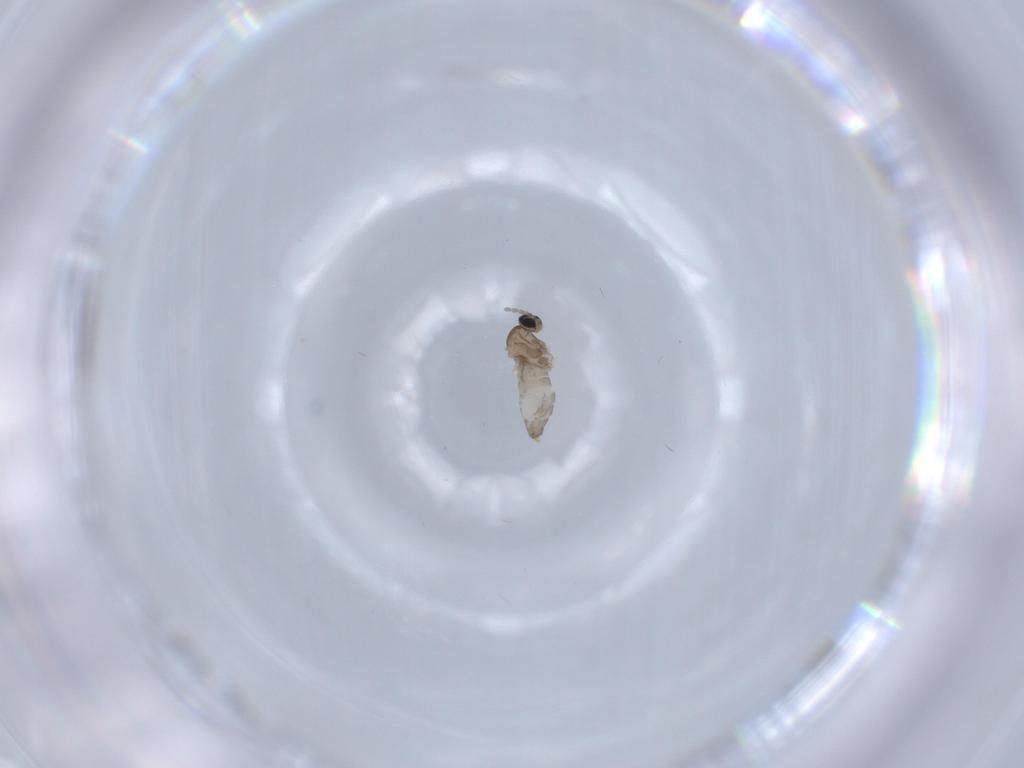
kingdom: Animalia
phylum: Arthropoda
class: Insecta
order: Diptera
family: Cecidomyiidae
